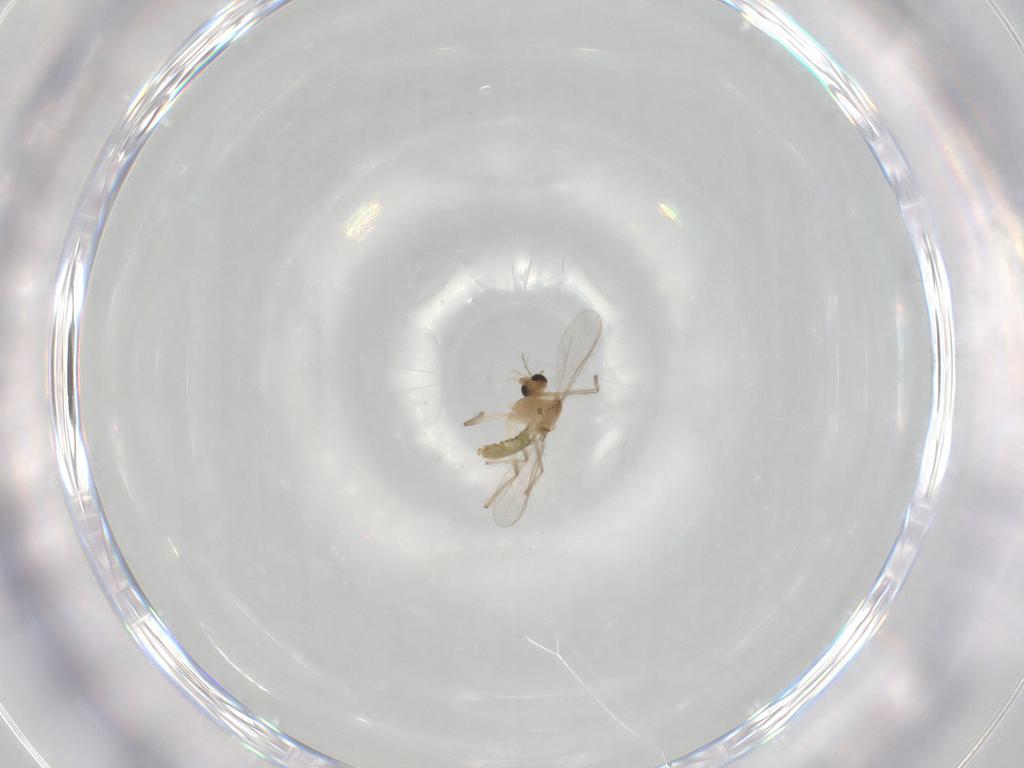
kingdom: Animalia
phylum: Arthropoda
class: Insecta
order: Diptera
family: Chironomidae
